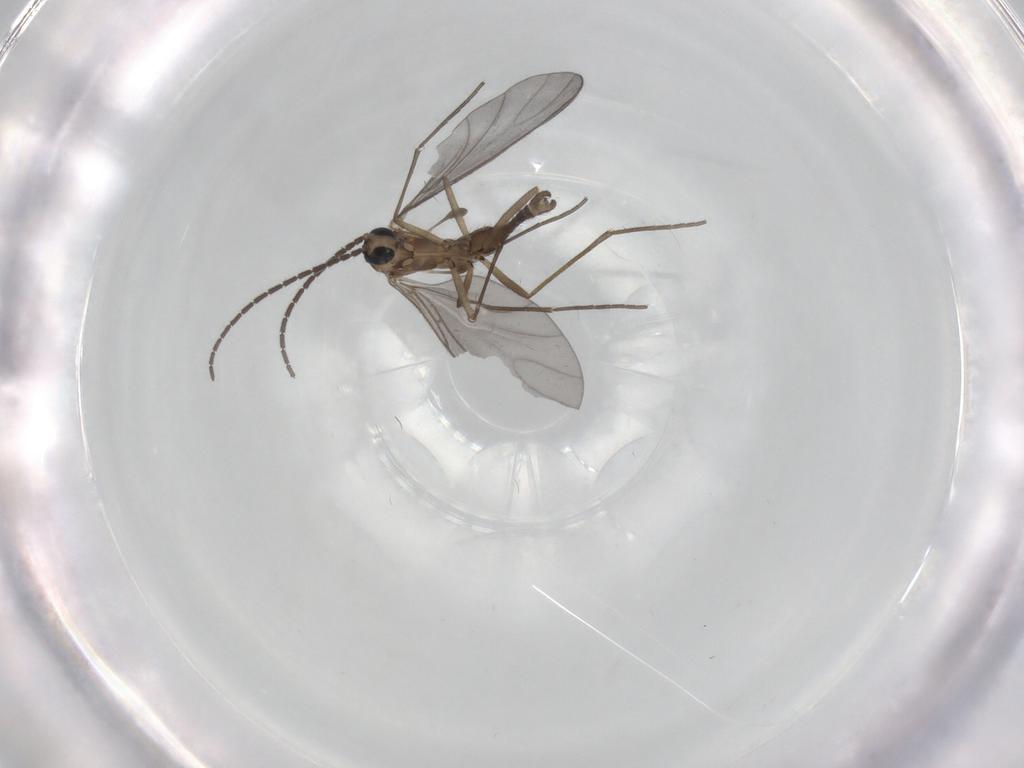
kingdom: Animalia
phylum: Arthropoda
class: Insecta
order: Diptera
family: Sciaridae
